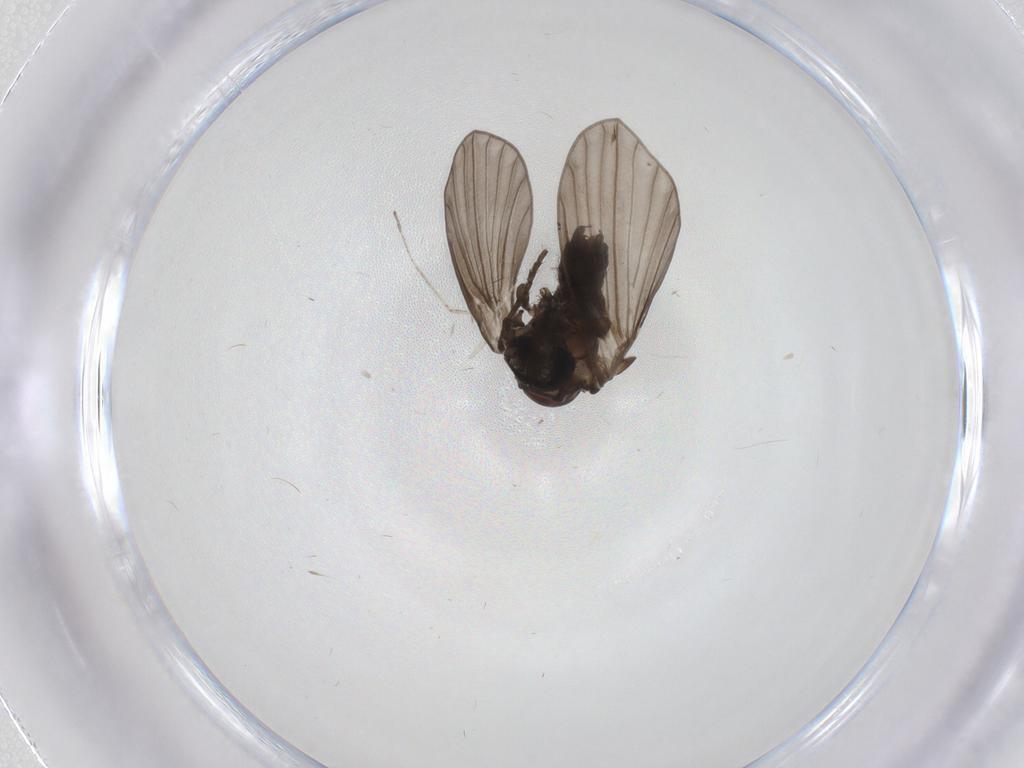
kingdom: Animalia
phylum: Arthropoda
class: Insecta
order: Diptera
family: Psychodidae
